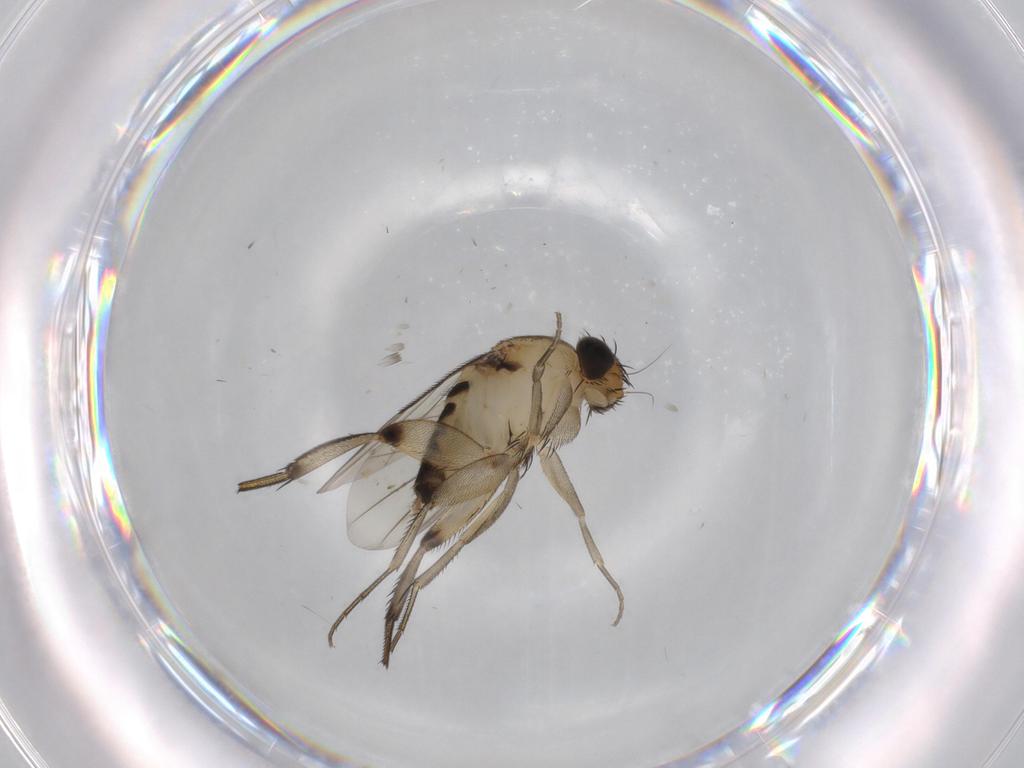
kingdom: Animalia
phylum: Arthropoda
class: Insecta
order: Diptera
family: Phoridae
